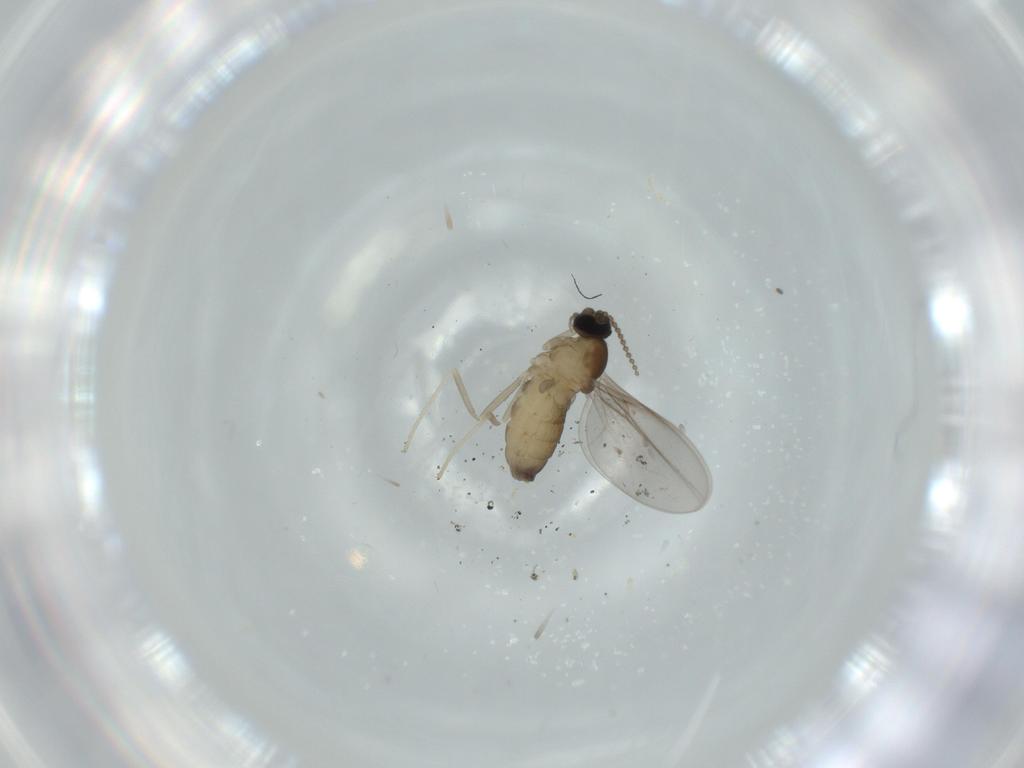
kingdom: Animalia
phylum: Arthropoda
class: Insecta
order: Diptera
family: Cecidomyiidae
